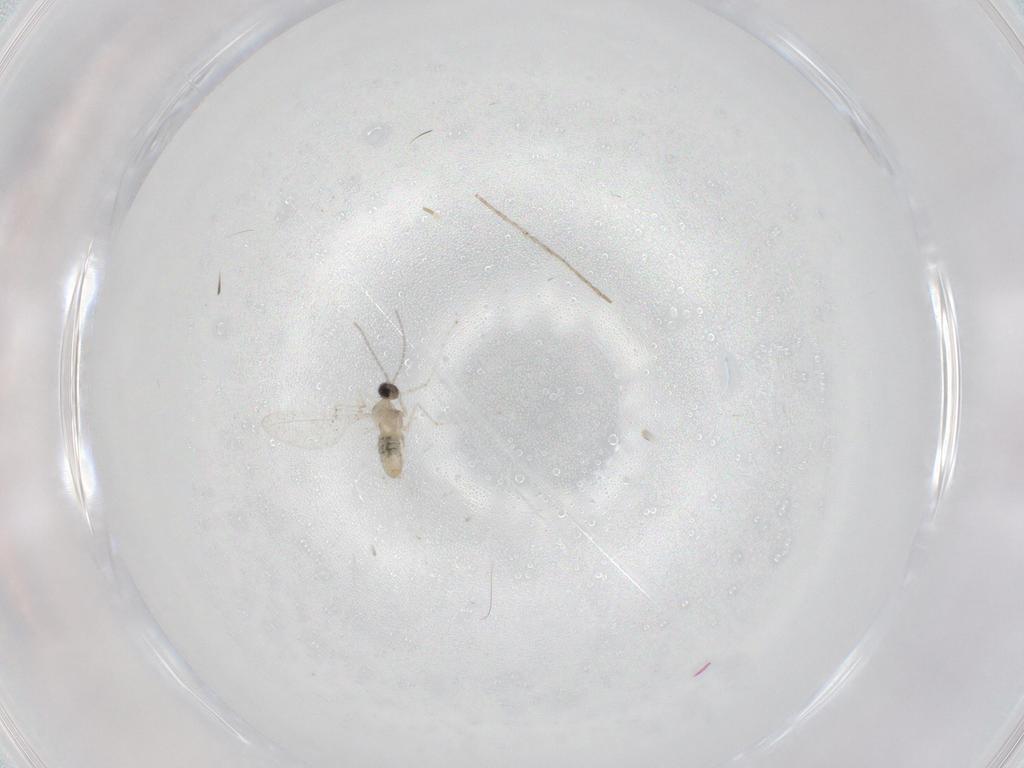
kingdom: Animalia
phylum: Arthropoda
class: Insecta
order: Diptera
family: Cecidomyiidae
